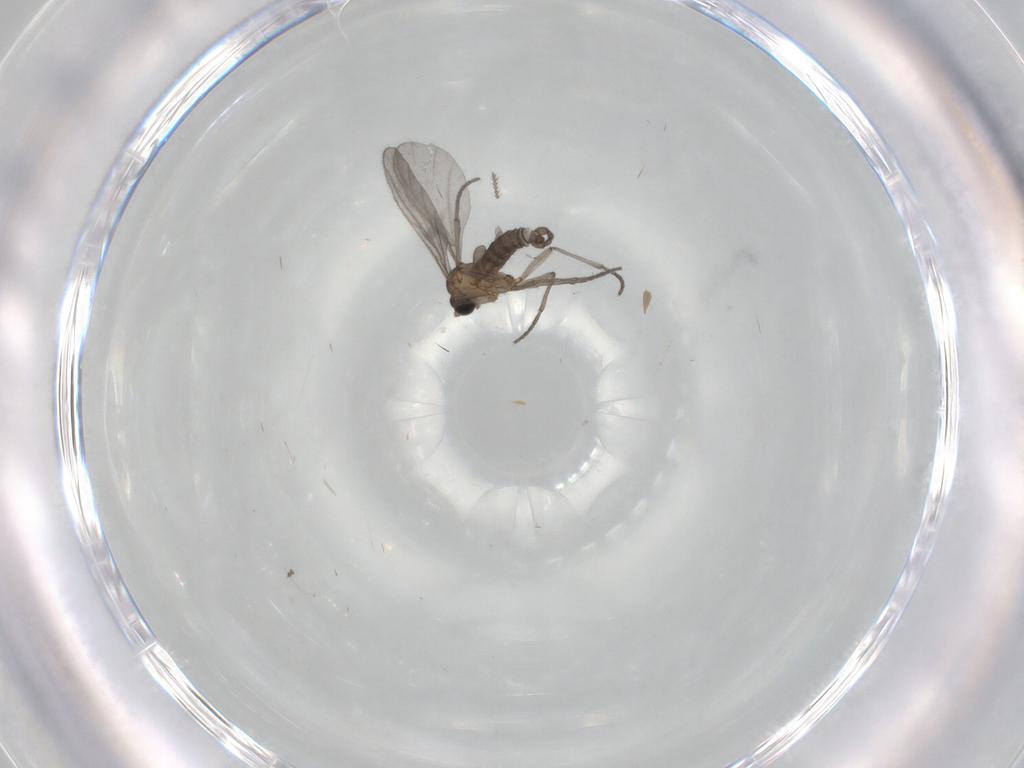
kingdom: Animalia
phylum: Arthropoda
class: Insecta
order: Diptera
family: Sciaridae
